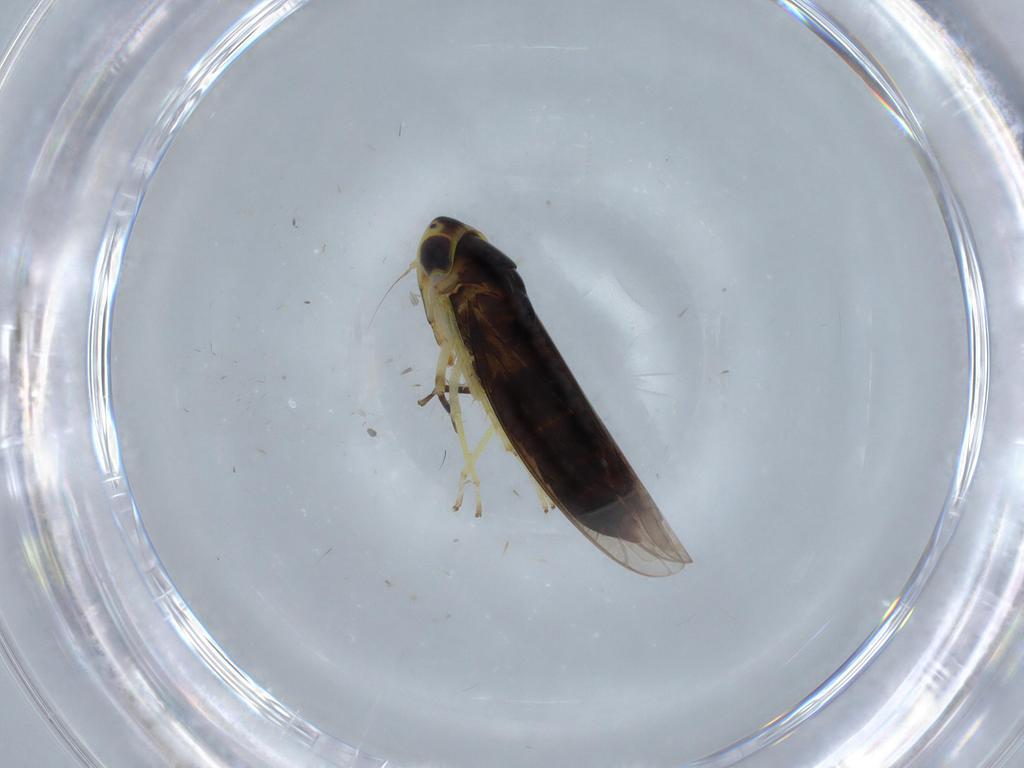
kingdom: Animalia
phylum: Arthropoda
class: Insecta
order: Hemiptera
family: Cicadellidae
